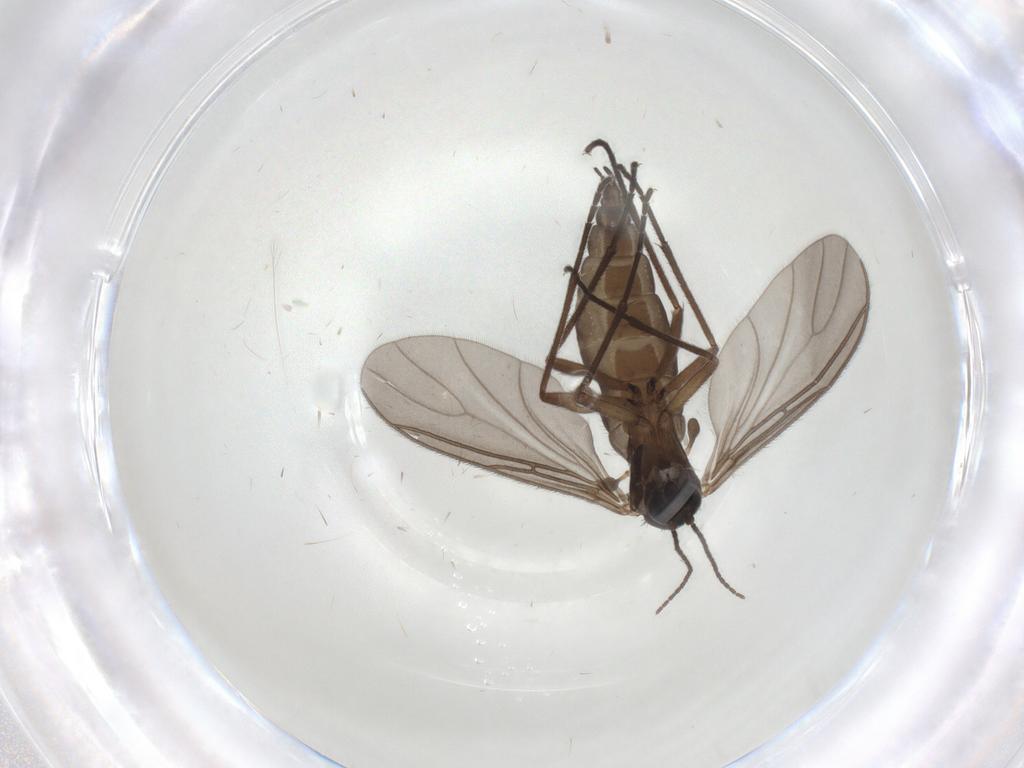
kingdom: Animalia
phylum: Arthropoda
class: Insecta
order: Diptera
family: Sciaridae
